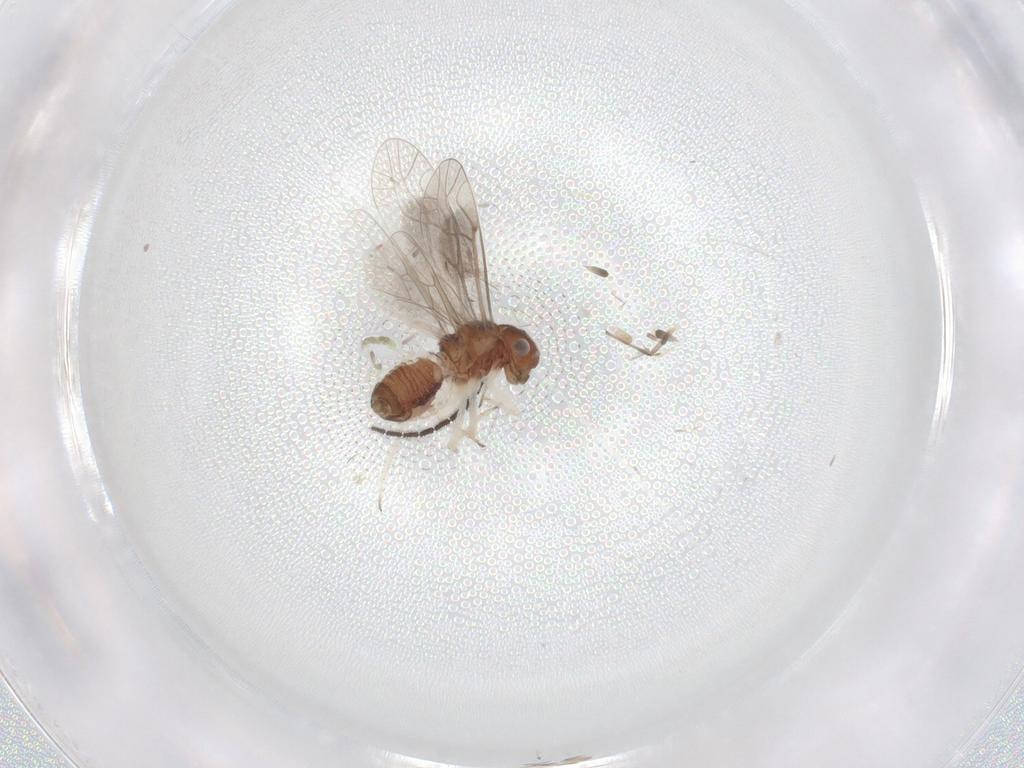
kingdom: Animalia
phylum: Arthropoda
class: Insecta
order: Psocodea
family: Caeciliusidae
